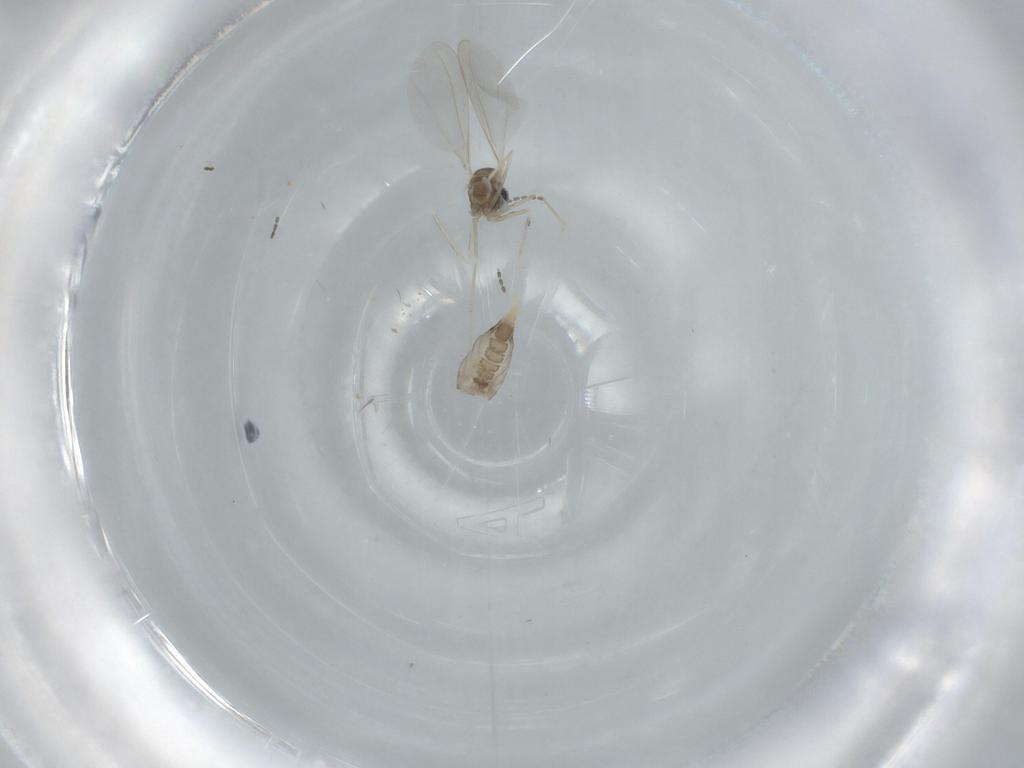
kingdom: Animalia
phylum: Arthropoda
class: Insecta
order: Diptera
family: Cecidomyiidae
